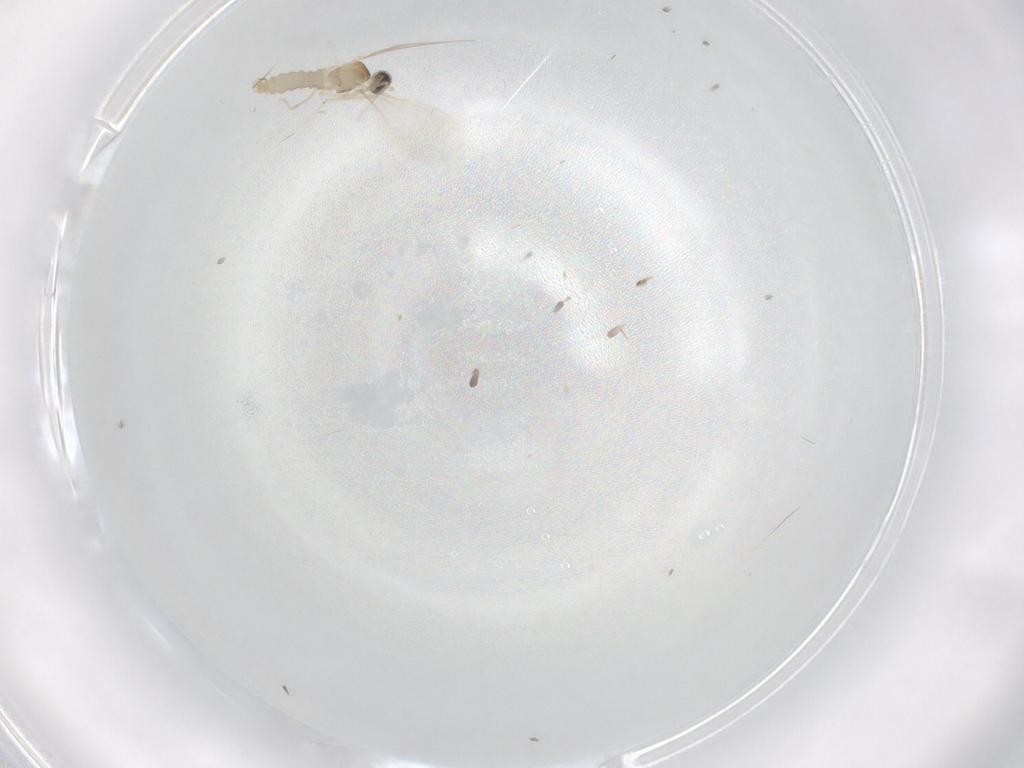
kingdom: Animalia
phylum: Arthropoda
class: Insecta
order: Diptera
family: Cecidomyiidae
